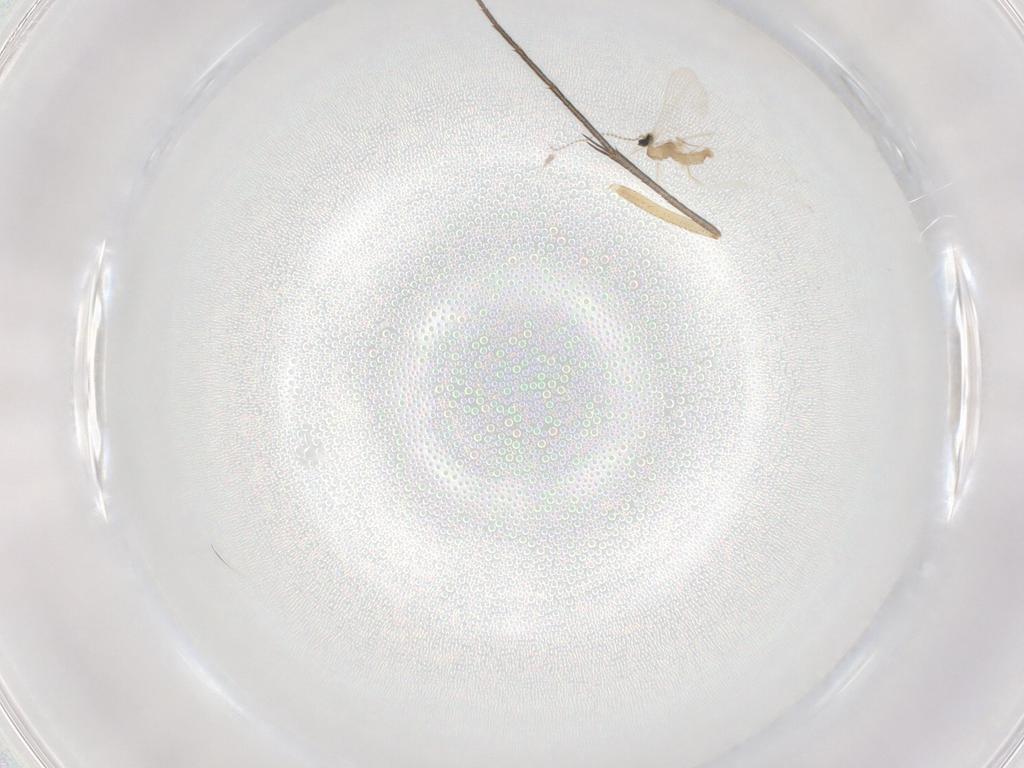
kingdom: Animalia
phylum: Arthropoda
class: Insecta
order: Diptera
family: Mycetophilidae
